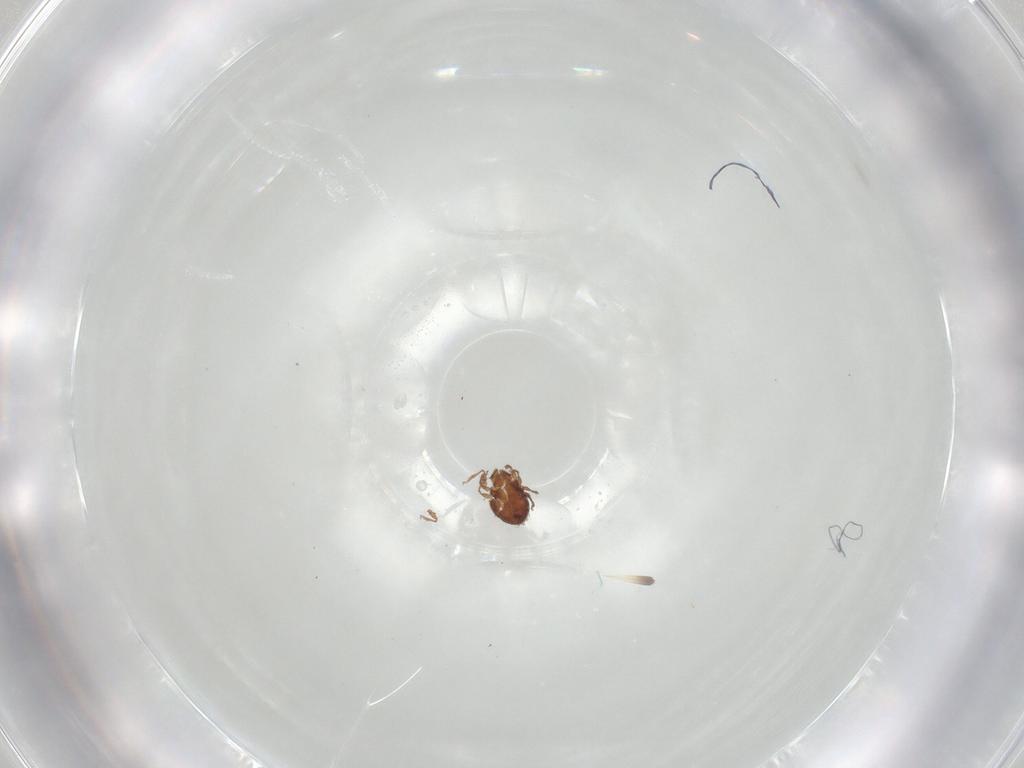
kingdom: Animalia
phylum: Arthropoda
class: Arachnida
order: Sarcoptiformes
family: Scheloribatidae
